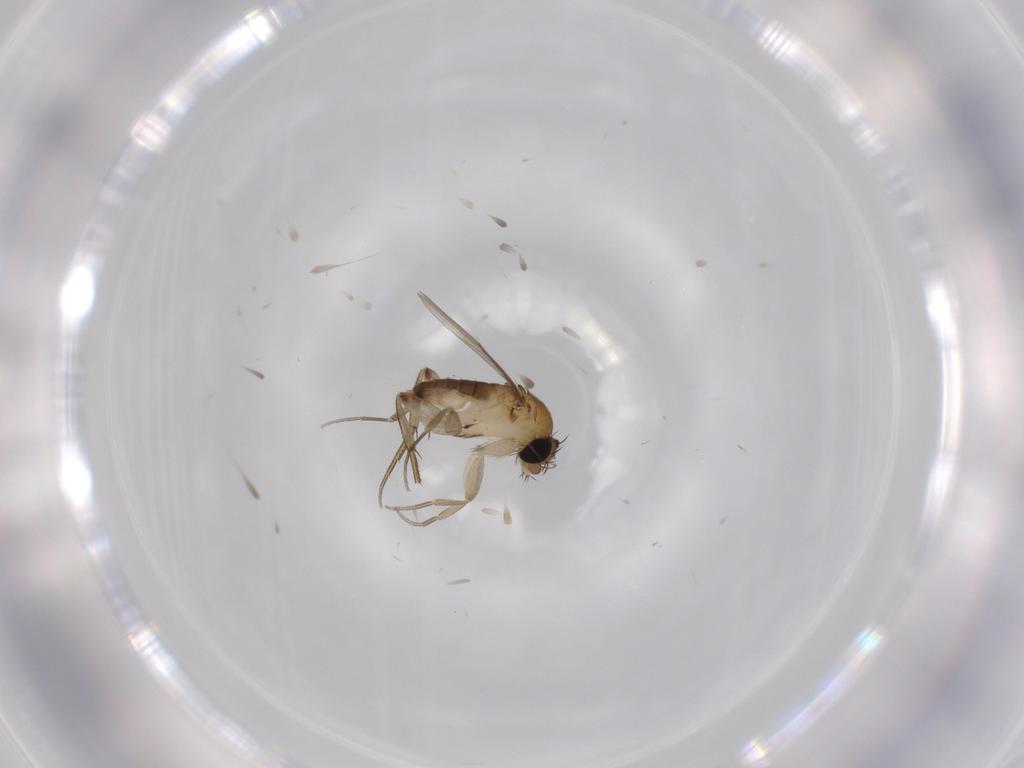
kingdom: Animalia
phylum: Arthropoda
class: Insecta
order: Diptera
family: Phoridae
